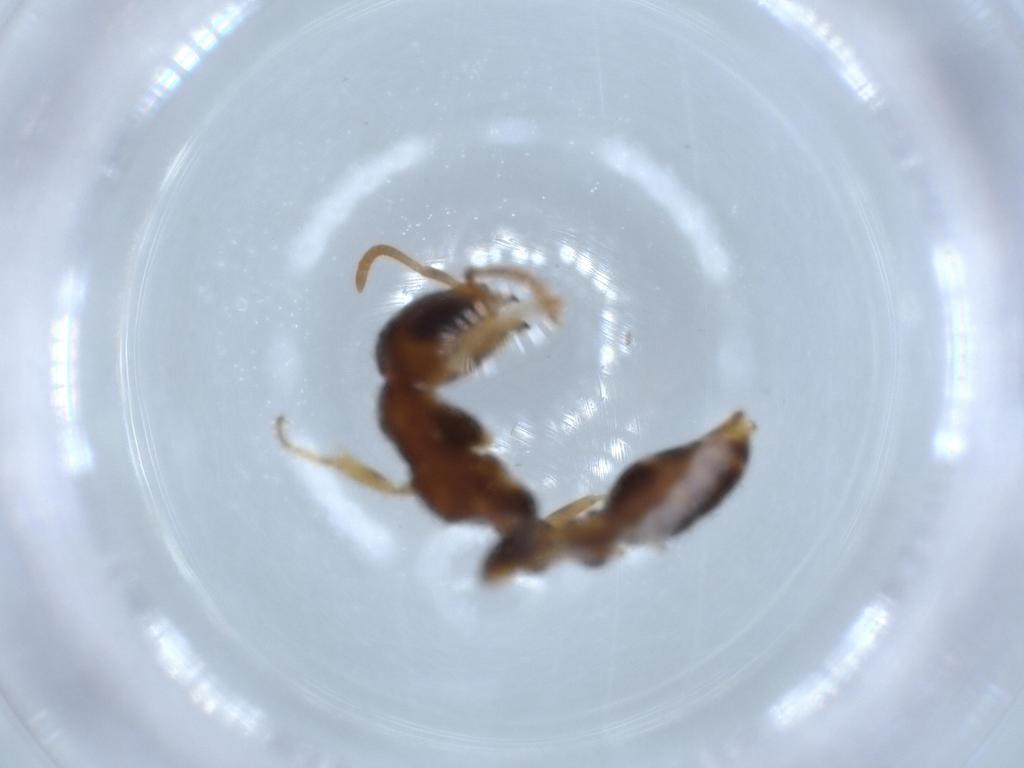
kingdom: Animalia
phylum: Arthropoda
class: Insecta
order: Hymenoptera
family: Formicidae
